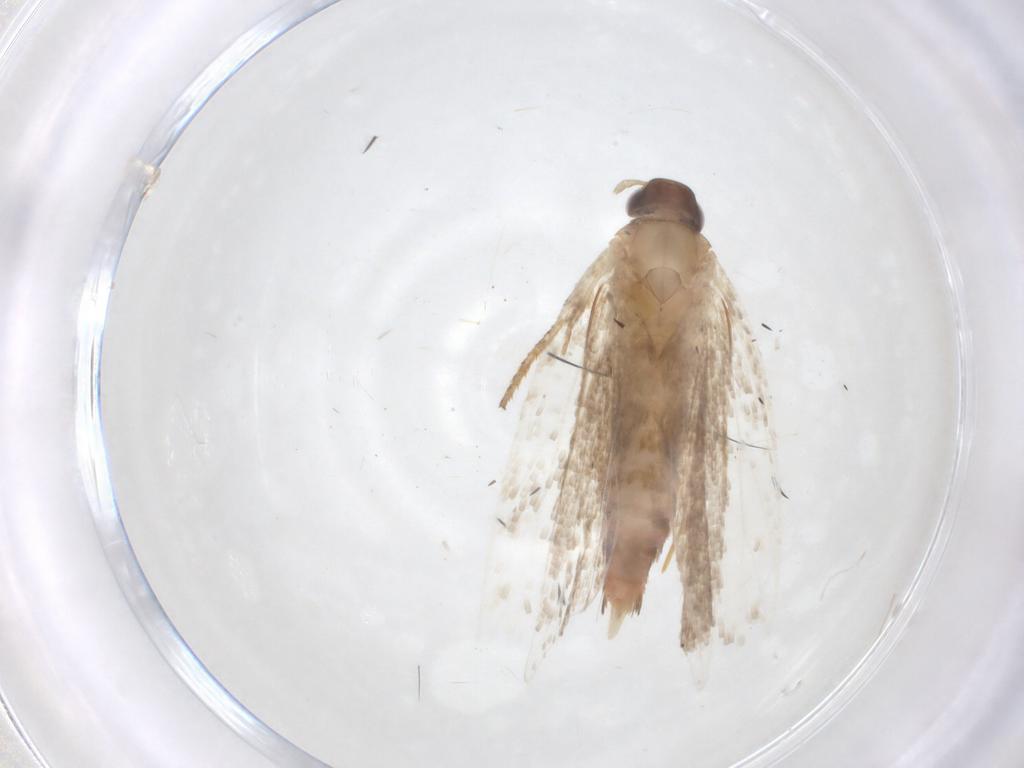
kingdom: Animalia
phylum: Arthropoda
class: Insecta
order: Lepidoptera
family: Gelechiidae
